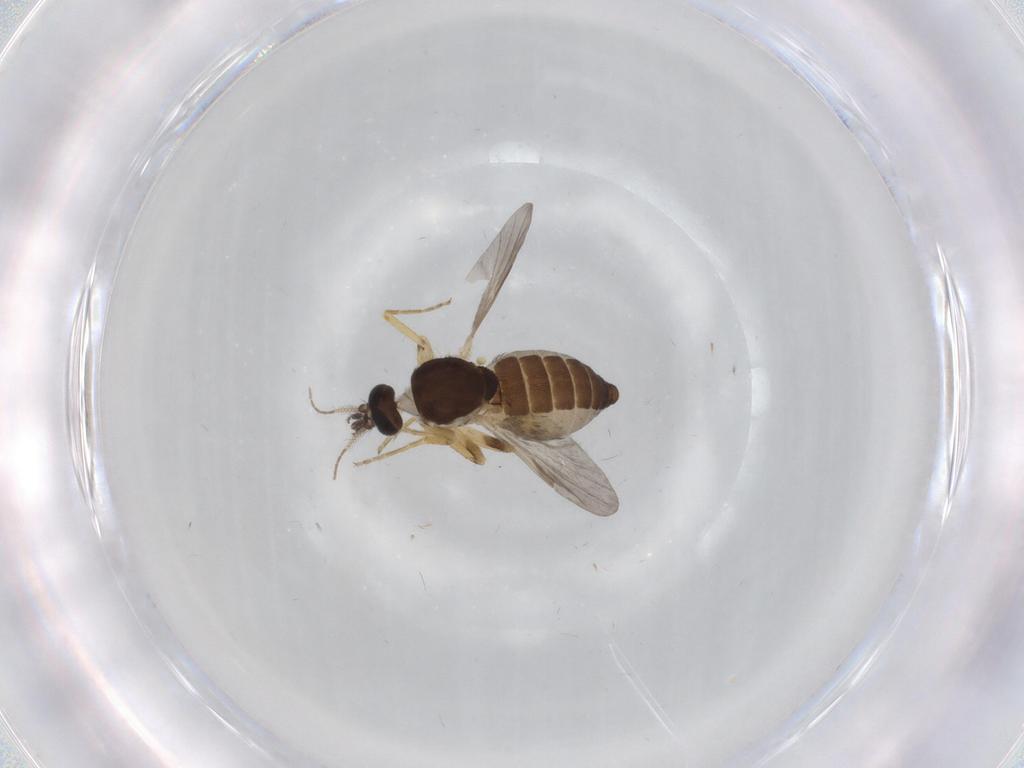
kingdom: Animalia
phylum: Arthropoda
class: Insecta
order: Diptera
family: Ceratopogonidae
